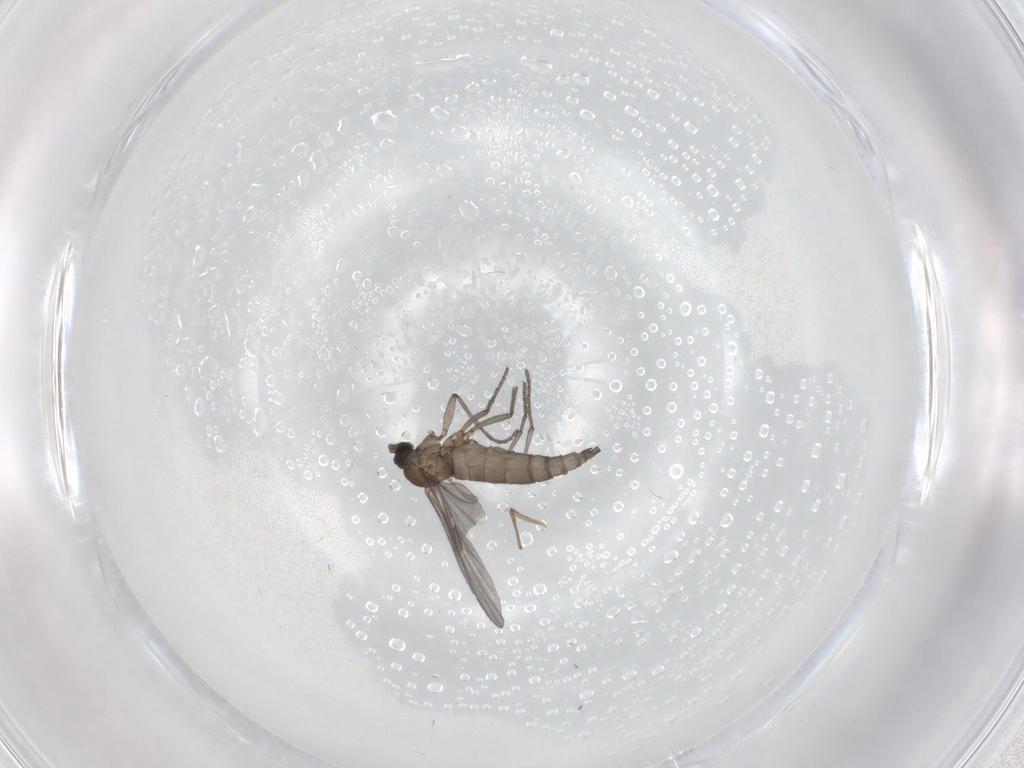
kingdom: Animalia
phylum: Arthropoda
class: Insecta
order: Diptera
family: Sciaridae
